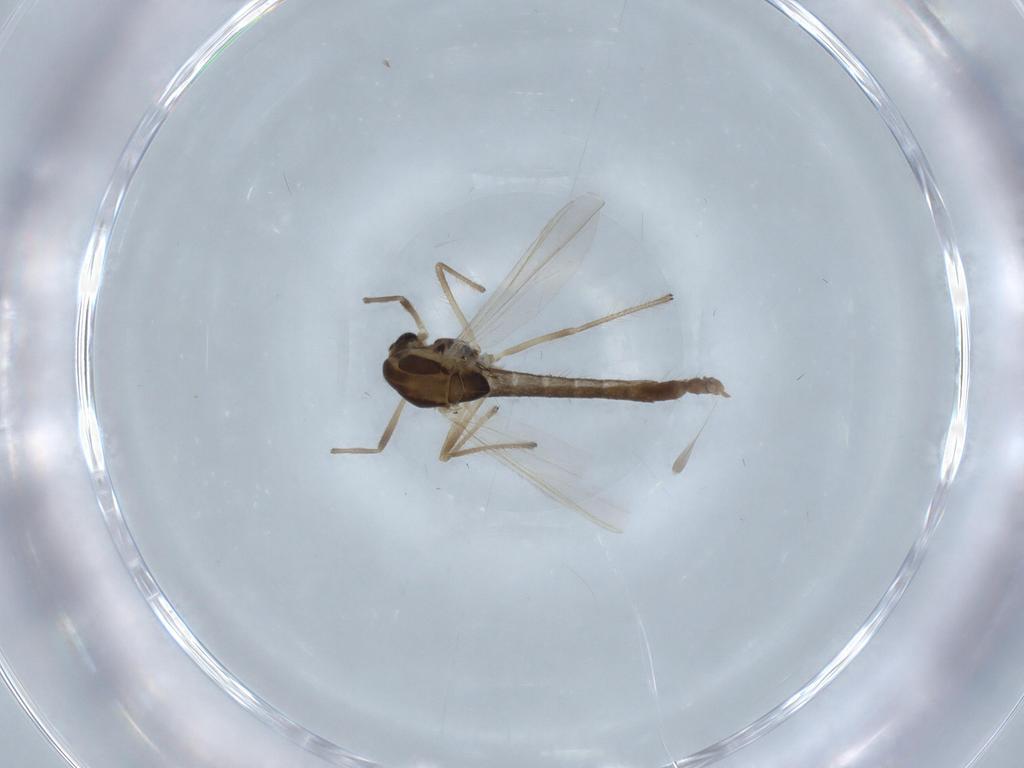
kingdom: Animalia
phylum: Arthropoda
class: Insecta
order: Diptera
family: Chironomidae
